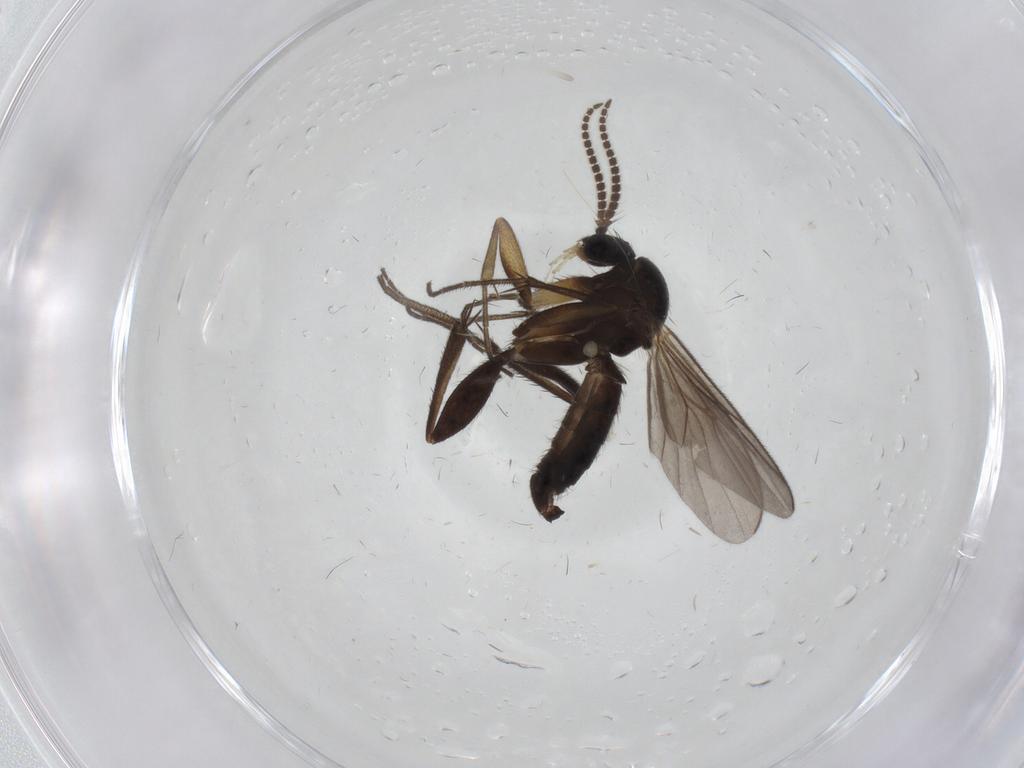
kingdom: Animalia
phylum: Arthropoda
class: Insecta
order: Diptera
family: Mycetophilidae
